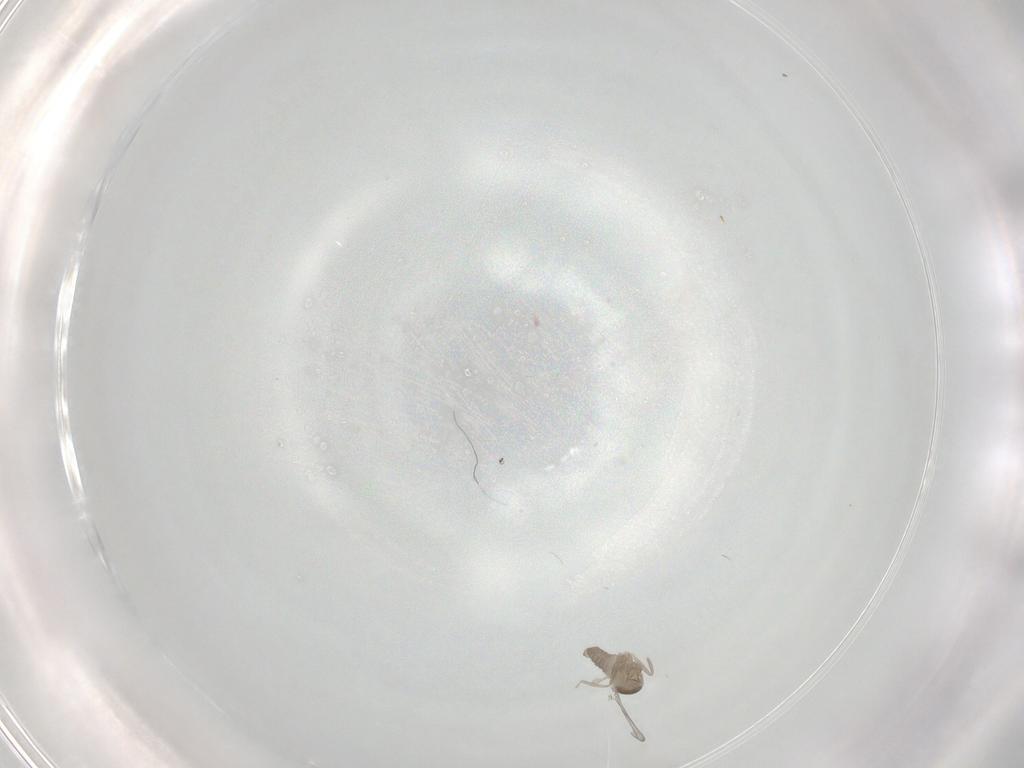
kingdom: Animalia
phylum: Arthropoda
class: Insecta
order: Diptera
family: Cecidomyiidae
